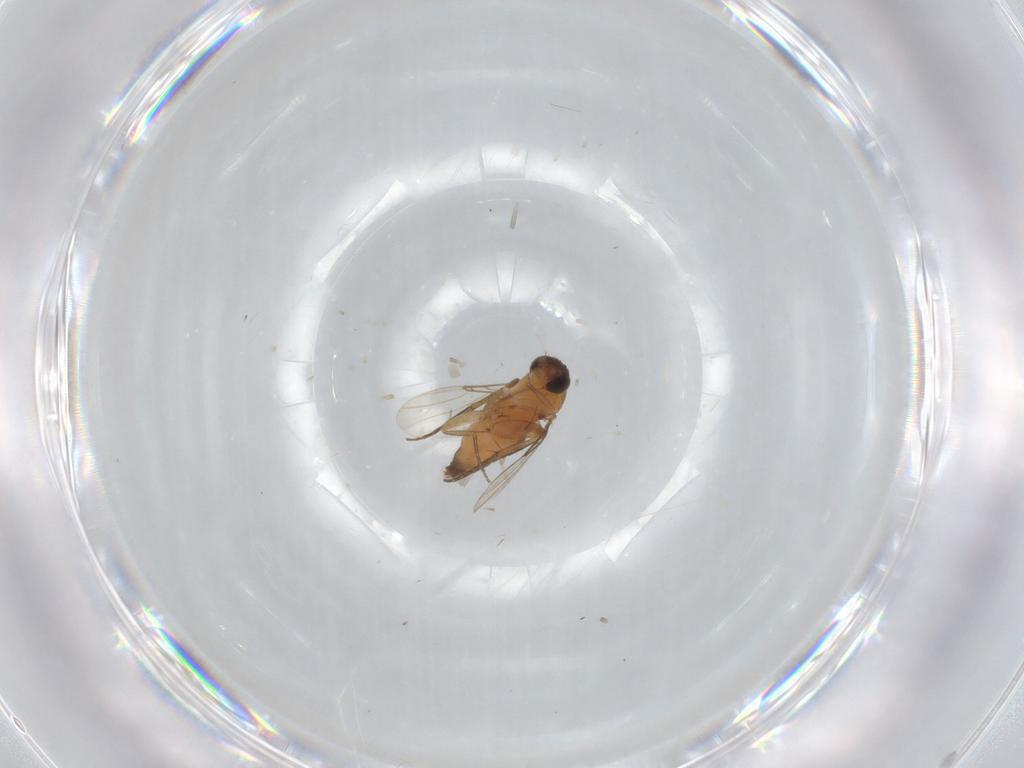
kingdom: Animalia
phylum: Arthropoda
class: Insecta
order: Diptera
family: Phoridae
